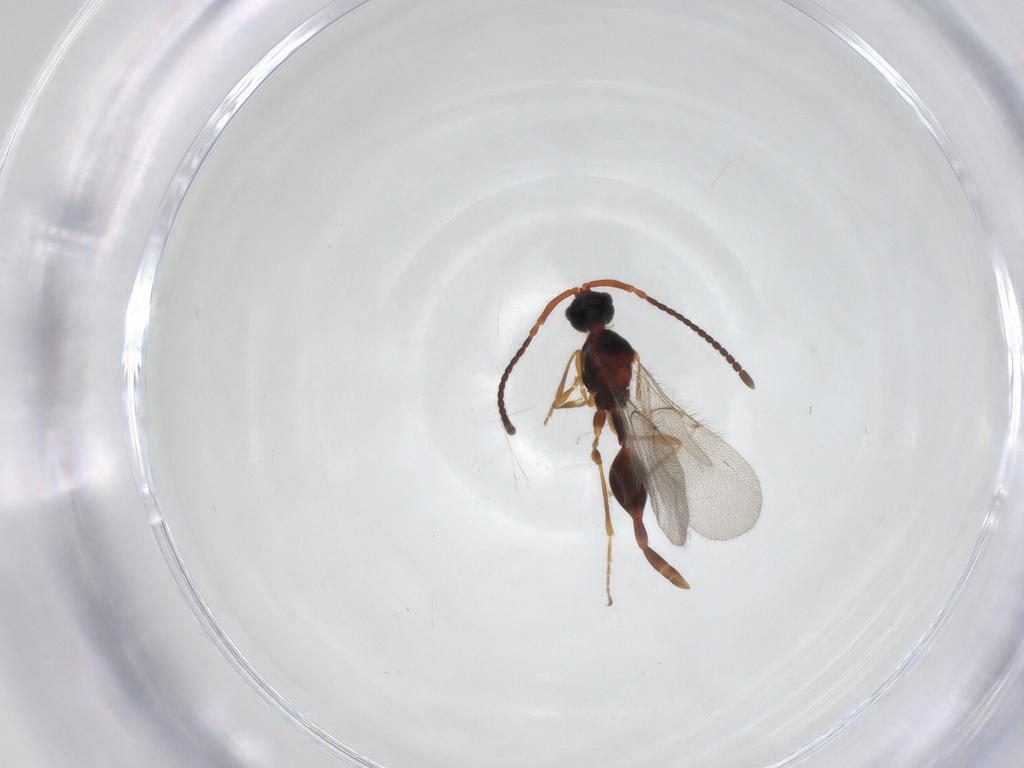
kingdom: Animalia
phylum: Arthropoda
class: Insecta
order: Hymenoptera
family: Diapriidae
